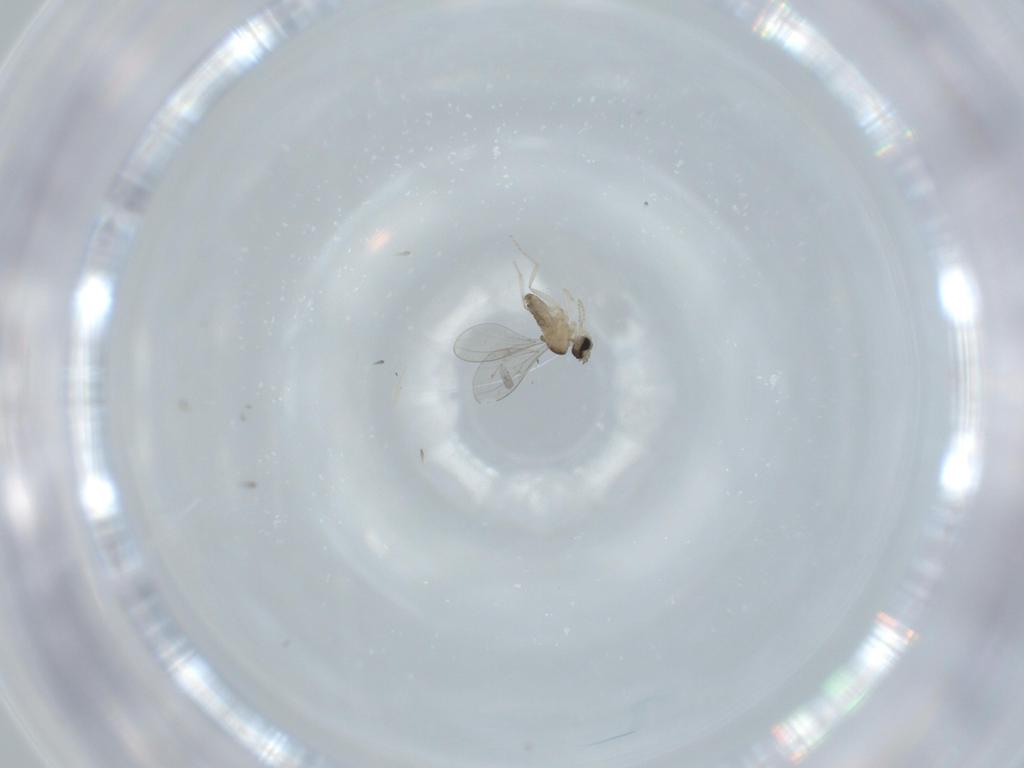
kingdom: Animalia
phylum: Arthropoda
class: Insecta
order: Diptera
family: Cecidomyiidae
